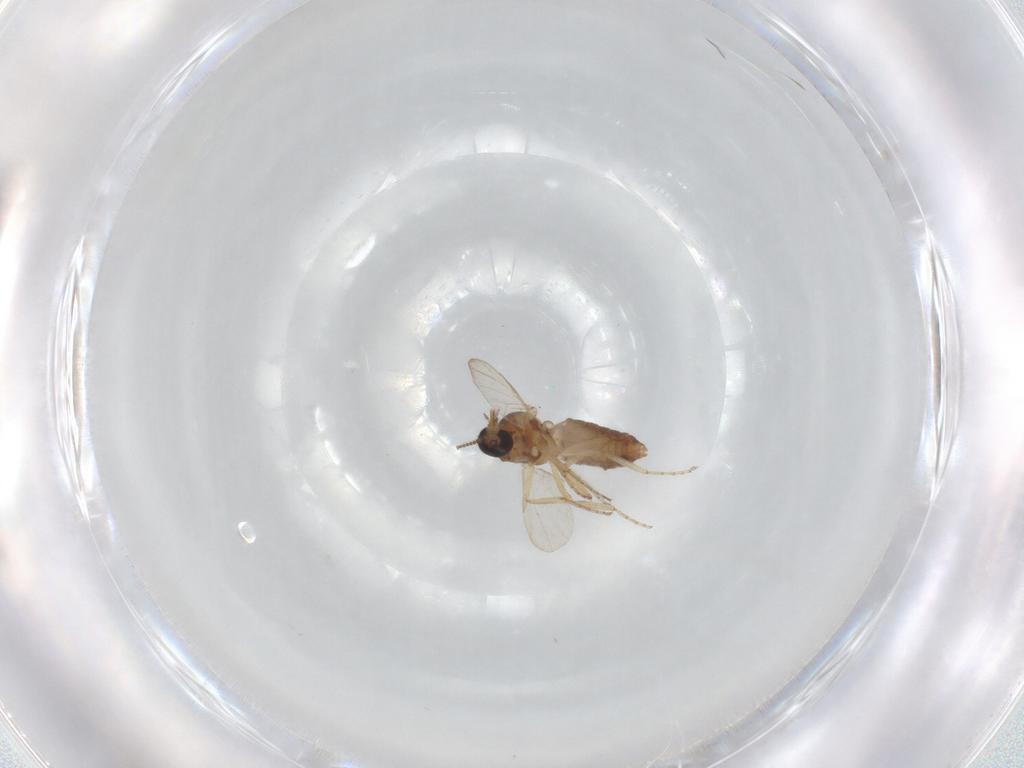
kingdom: Animalia
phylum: Arthropoda
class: Insecta
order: Diptera
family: Ceratopogonidae
